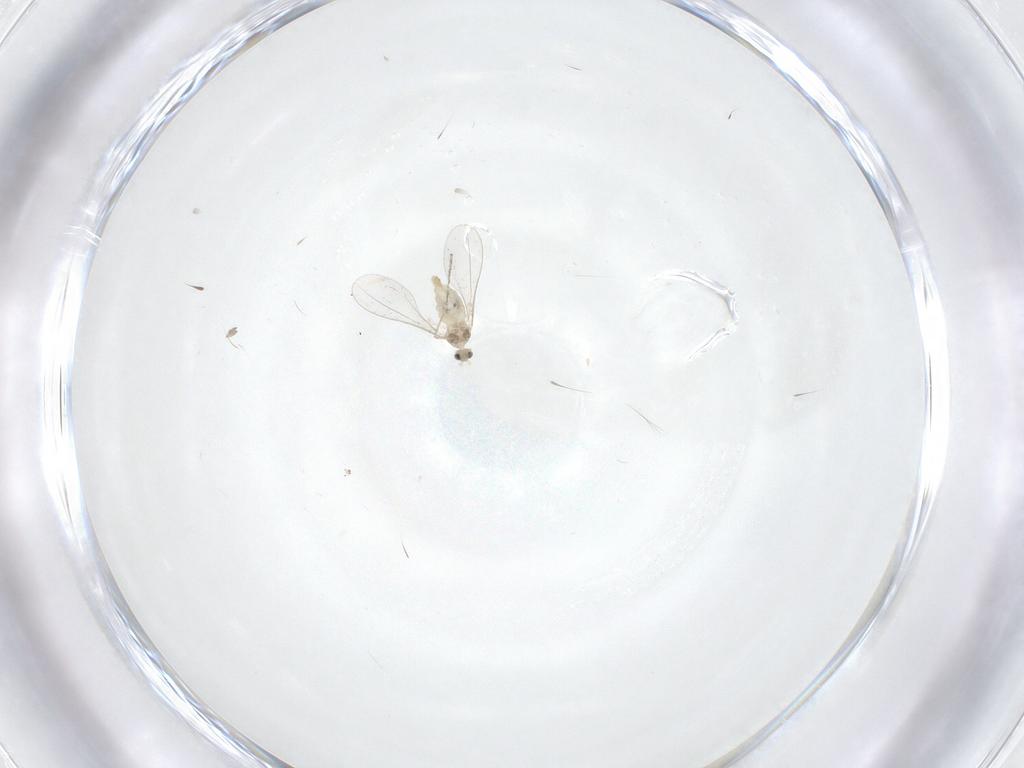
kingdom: Animalia
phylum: Arthropoda
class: Insecta
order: Diptera
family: Cecidomyiidae
